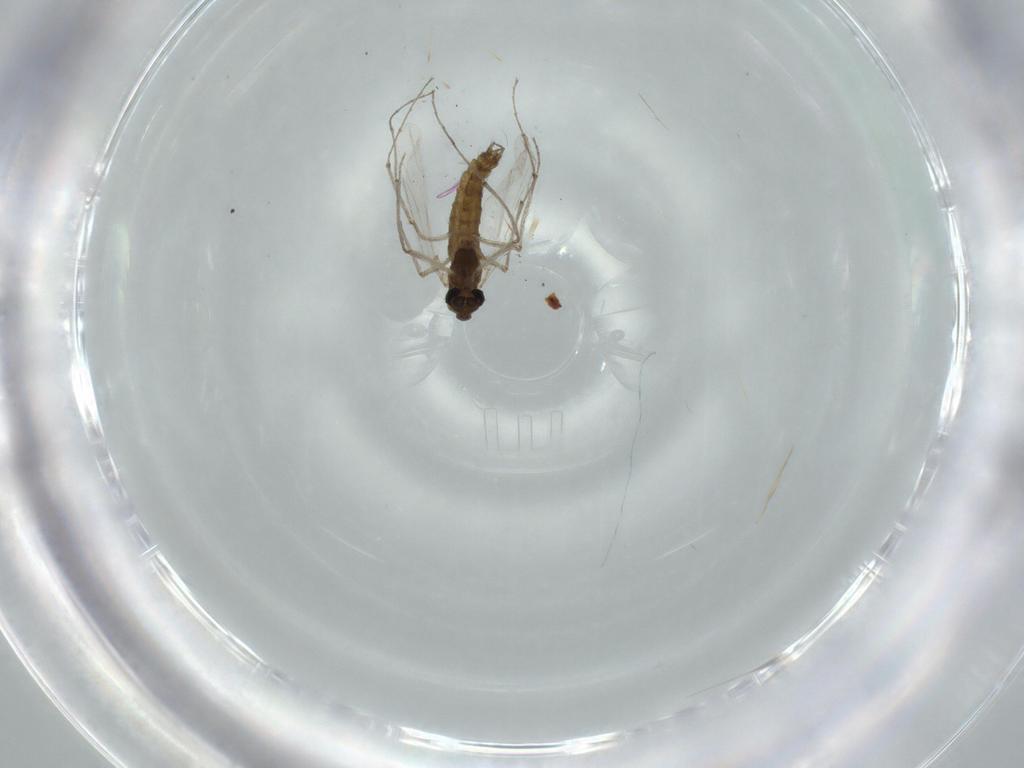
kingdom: Animalia
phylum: Arthropoda
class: Insecta
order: Diptera
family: Chironomidae
